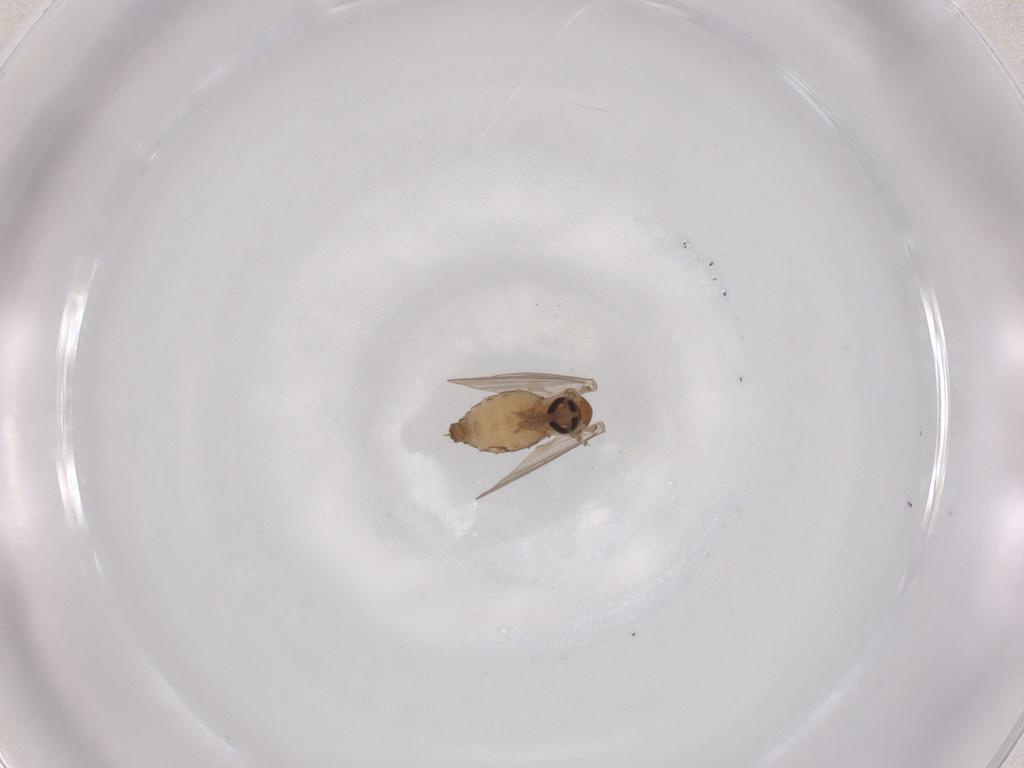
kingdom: Animalia
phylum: Arthropoda
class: Insecta
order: Diptera
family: Psychodidae
